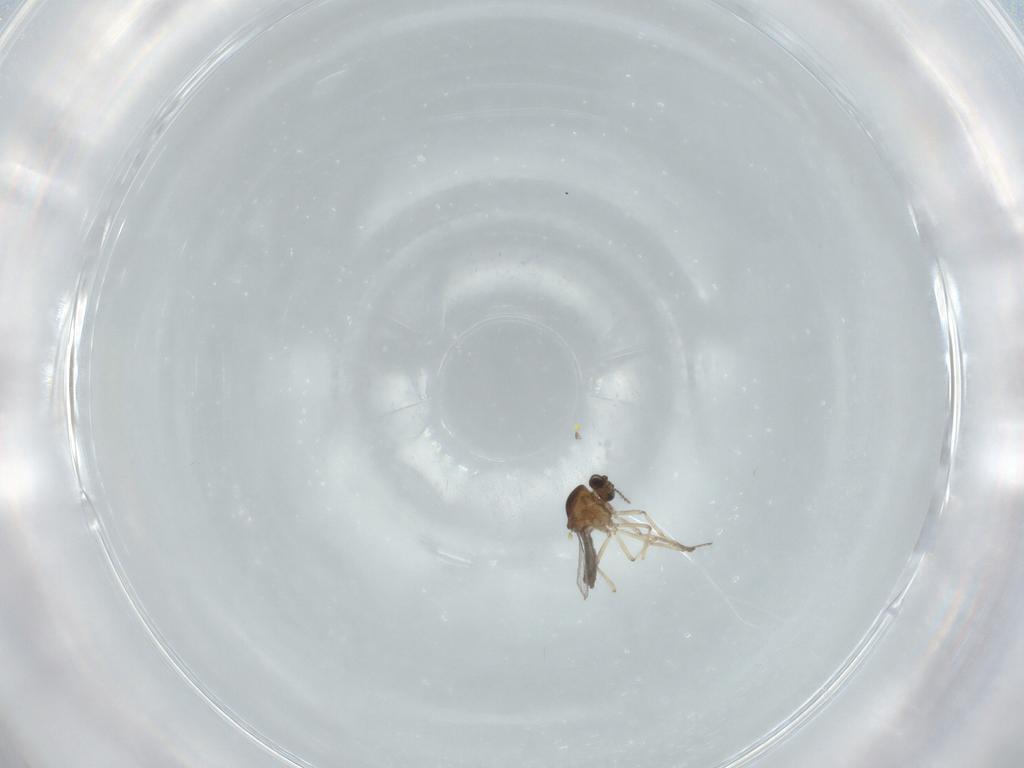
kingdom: Animalia
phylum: Arthropoda
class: Insecta
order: Diptera
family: Ceratopogonidae
